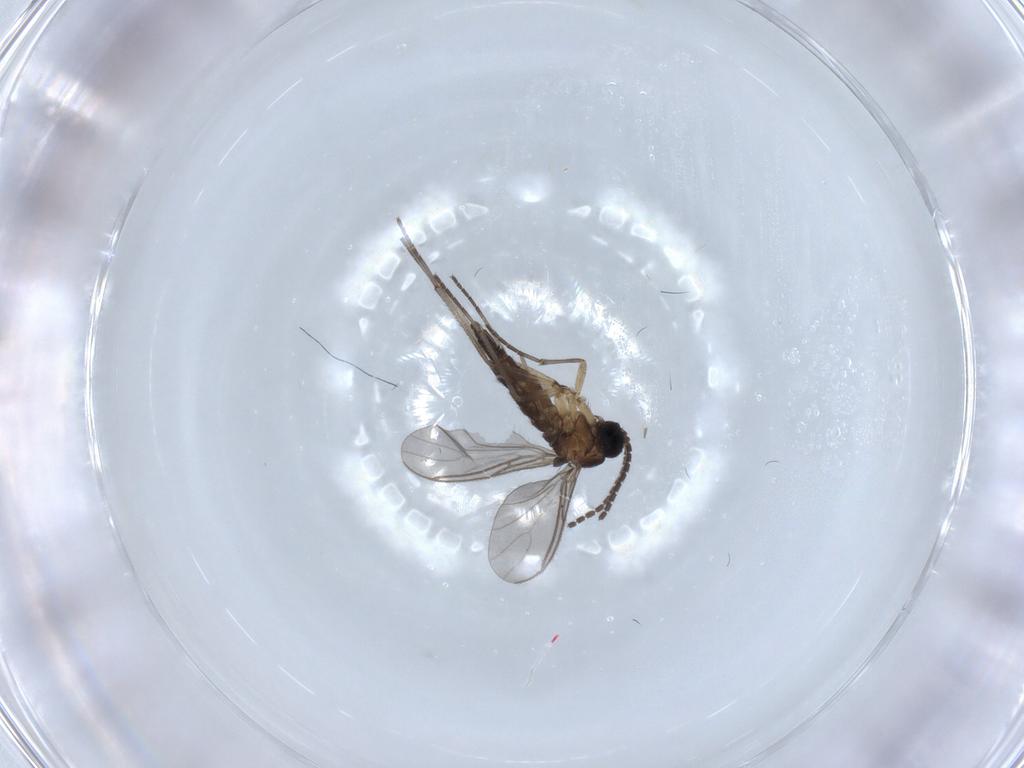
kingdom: Animalia
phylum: Arthropoda
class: Insecta
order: Diptera
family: Sciaridae
